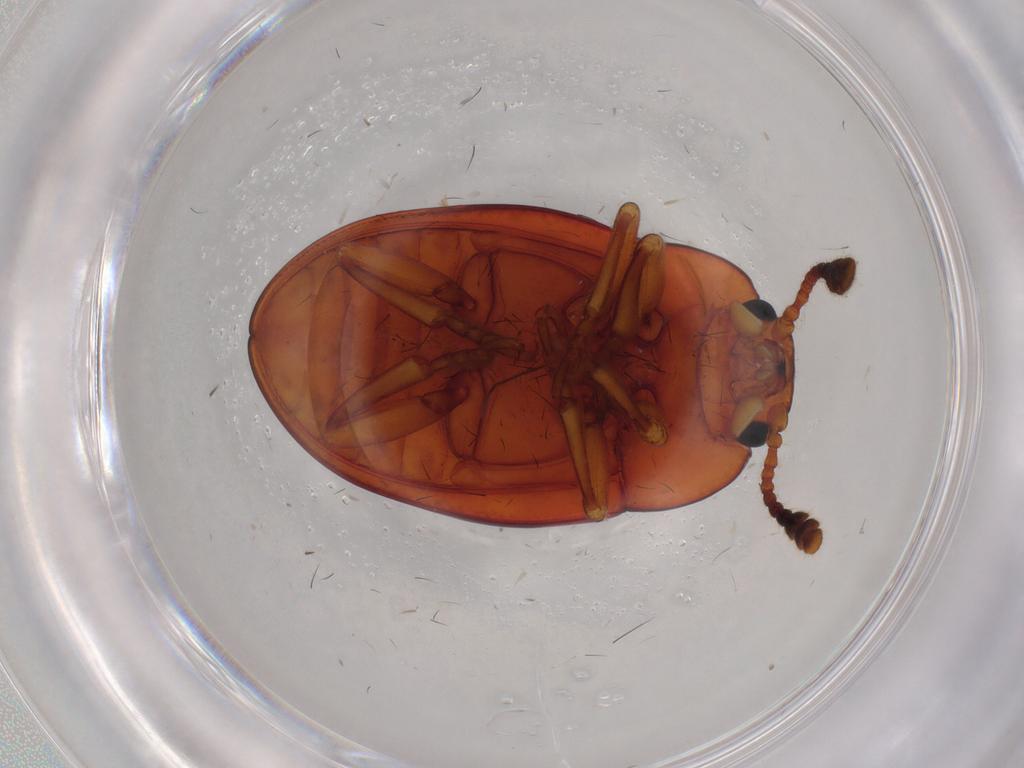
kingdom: Animalia
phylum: Arthropoda
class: Insecta
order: Coleoptera
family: Erotylidae
